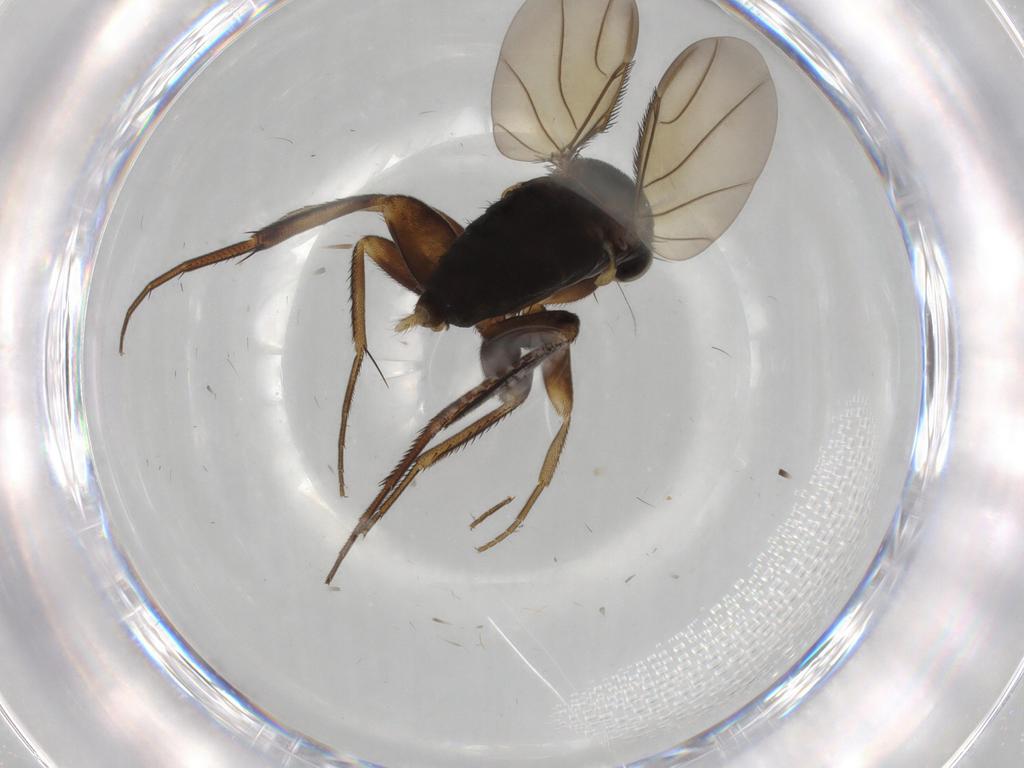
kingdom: Animalia
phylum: Arthropoda
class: Insecta
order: Diptera
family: Phoridae
